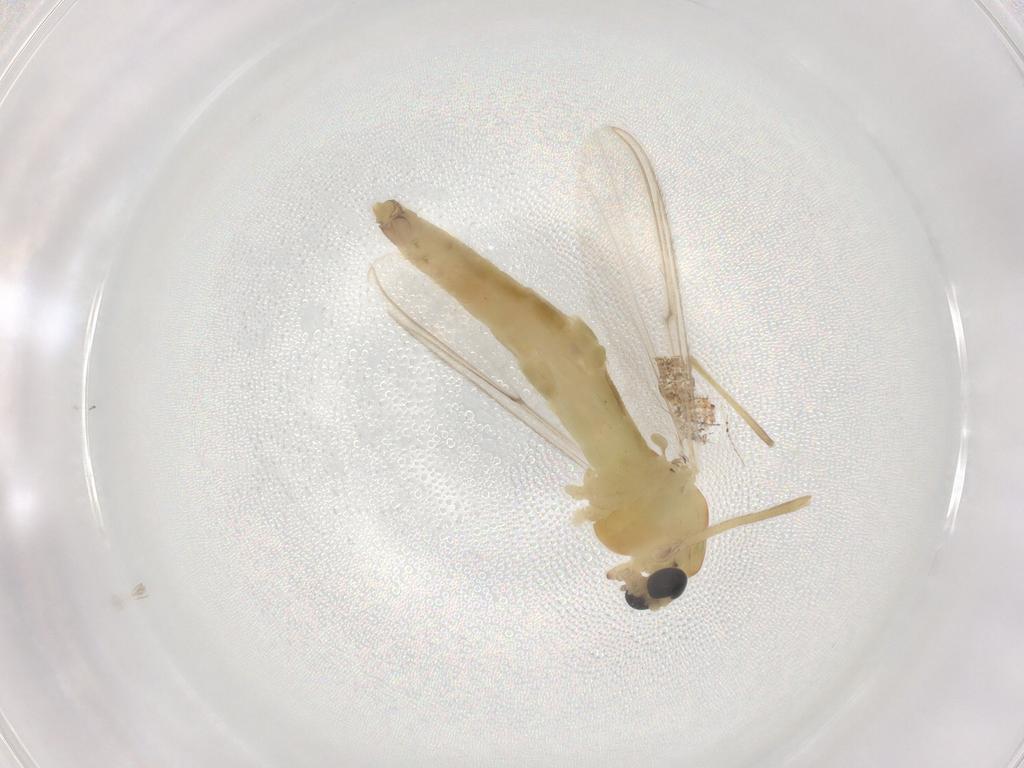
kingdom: Animalia
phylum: Arthropoda
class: Insecta
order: Diptera
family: Chironomidae
